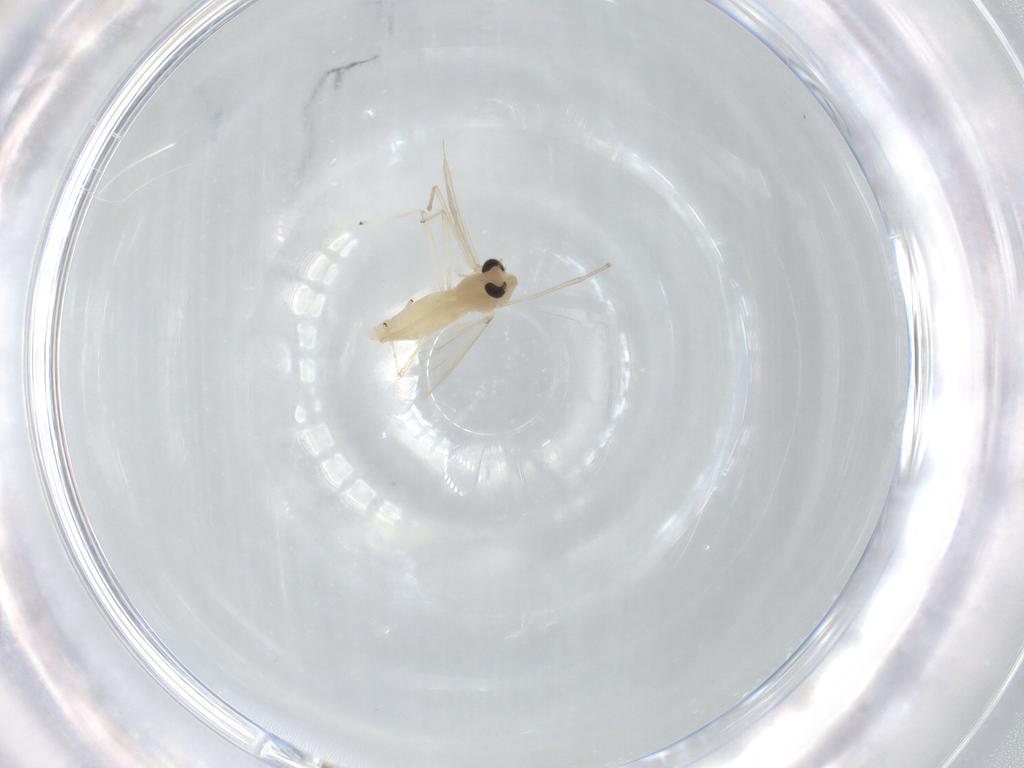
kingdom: Animalia
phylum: Arthropoda
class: Insecta
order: Diptera
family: Chironomidae
